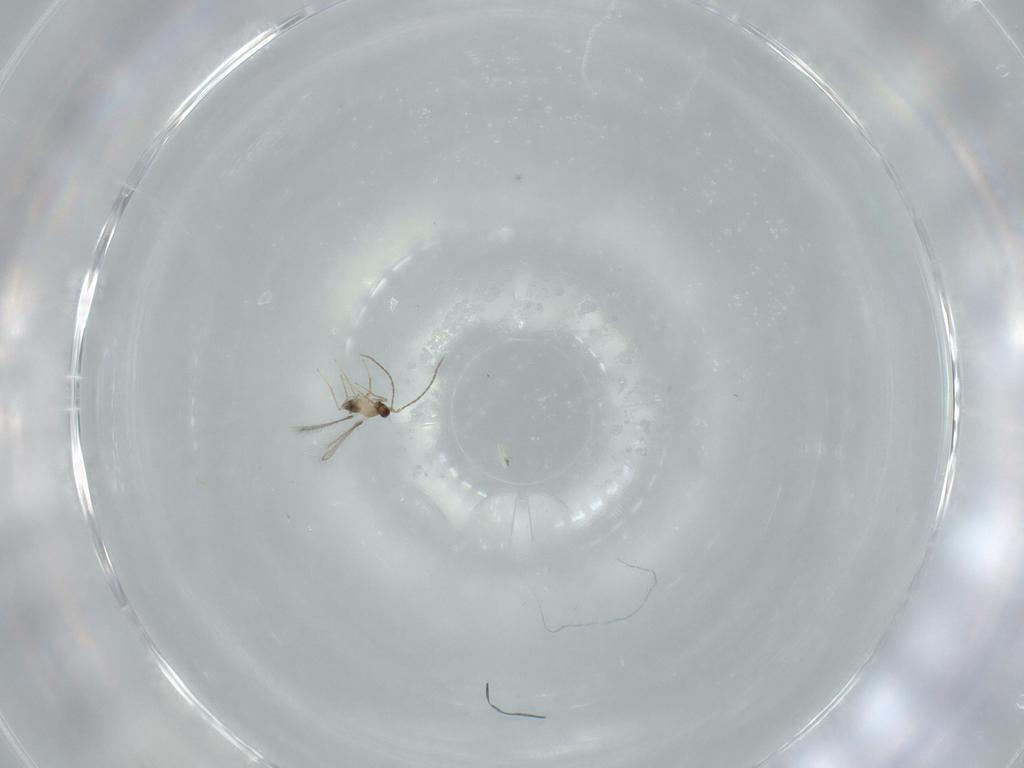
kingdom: Animalia
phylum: Arthropoda
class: Insecta
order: Hymenoptera
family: Mymaridae
